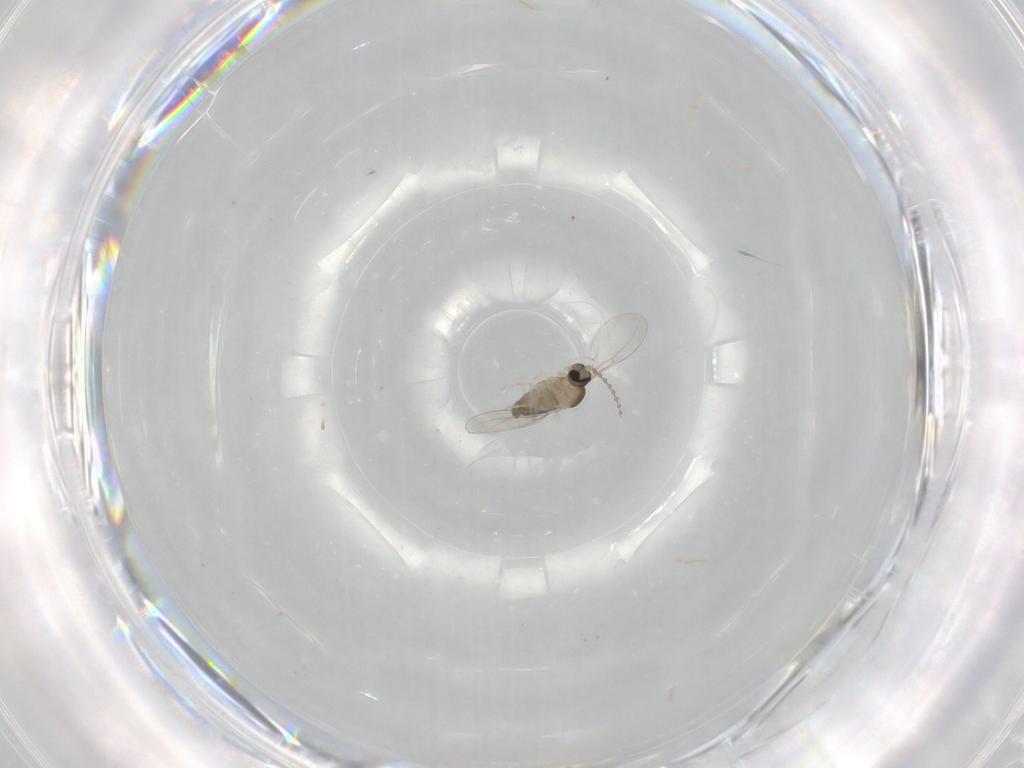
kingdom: Animalia
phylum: Arthropoda
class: Insecta
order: Diptera
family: Cecidomyiidae
